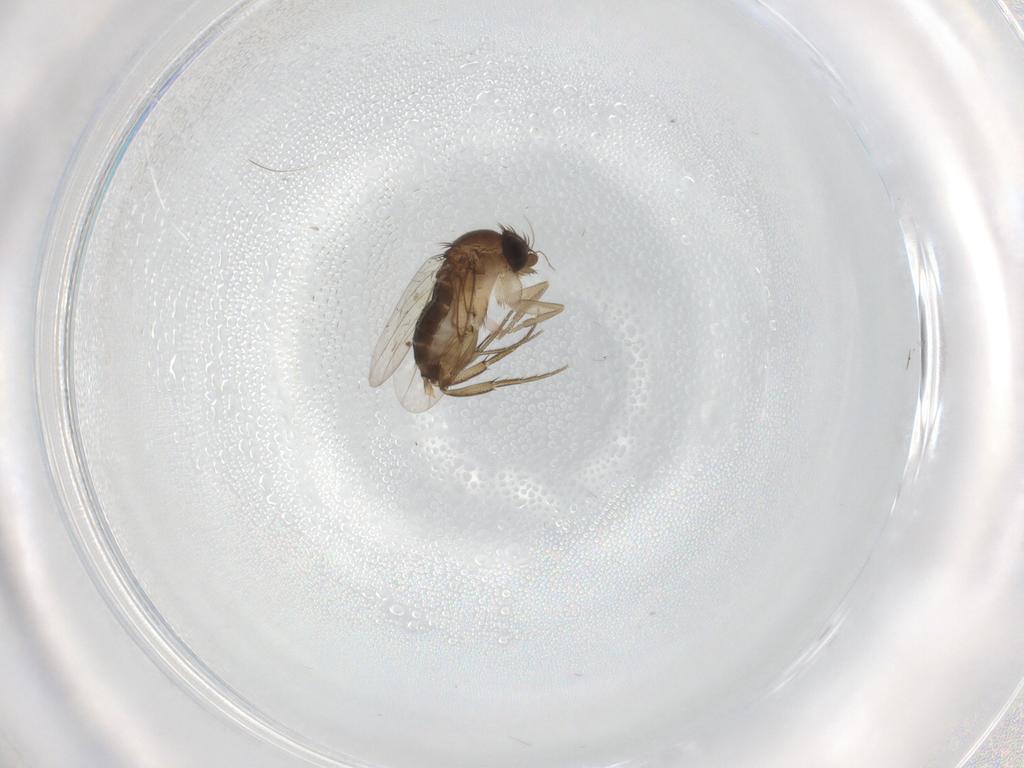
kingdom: Animalia
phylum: Arthropoda
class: Insecta
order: Diptera
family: Phoridae
